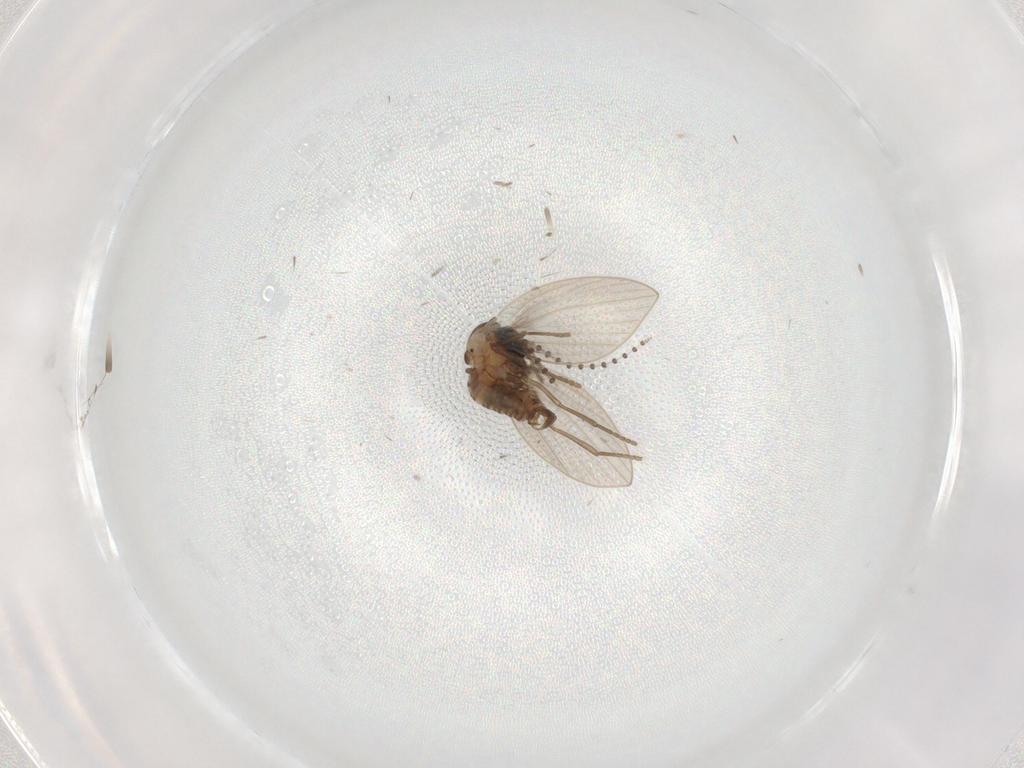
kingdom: Animalia
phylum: Arthropoda
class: Insecta
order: Diptera
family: Psychodidae
